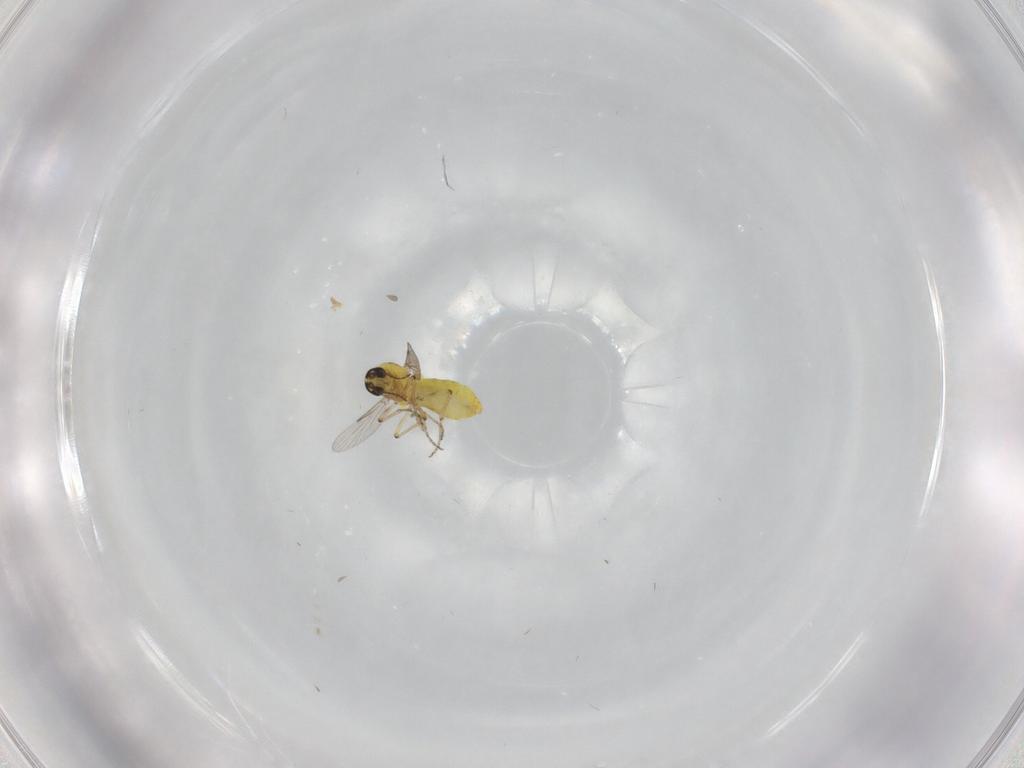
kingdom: Animalia
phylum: Arthropoda
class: Insecta
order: Diptera
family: Ceratopogonidae
